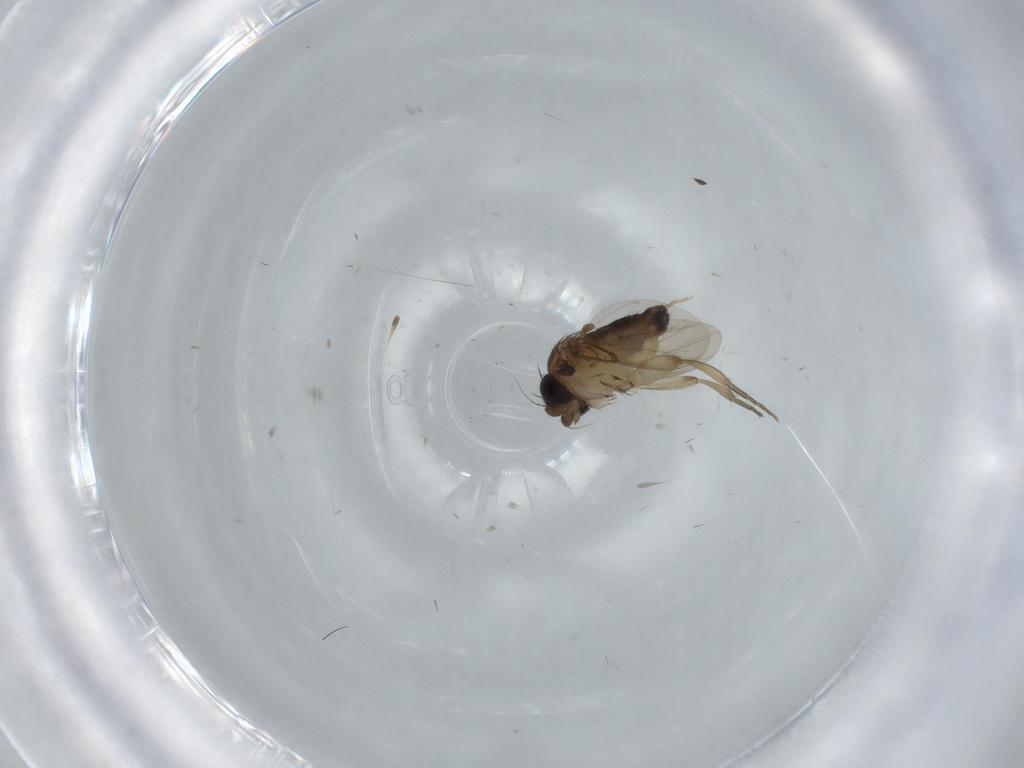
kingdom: Animalia
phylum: Arthropoda
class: Insecta
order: Diptera
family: Phoridae
